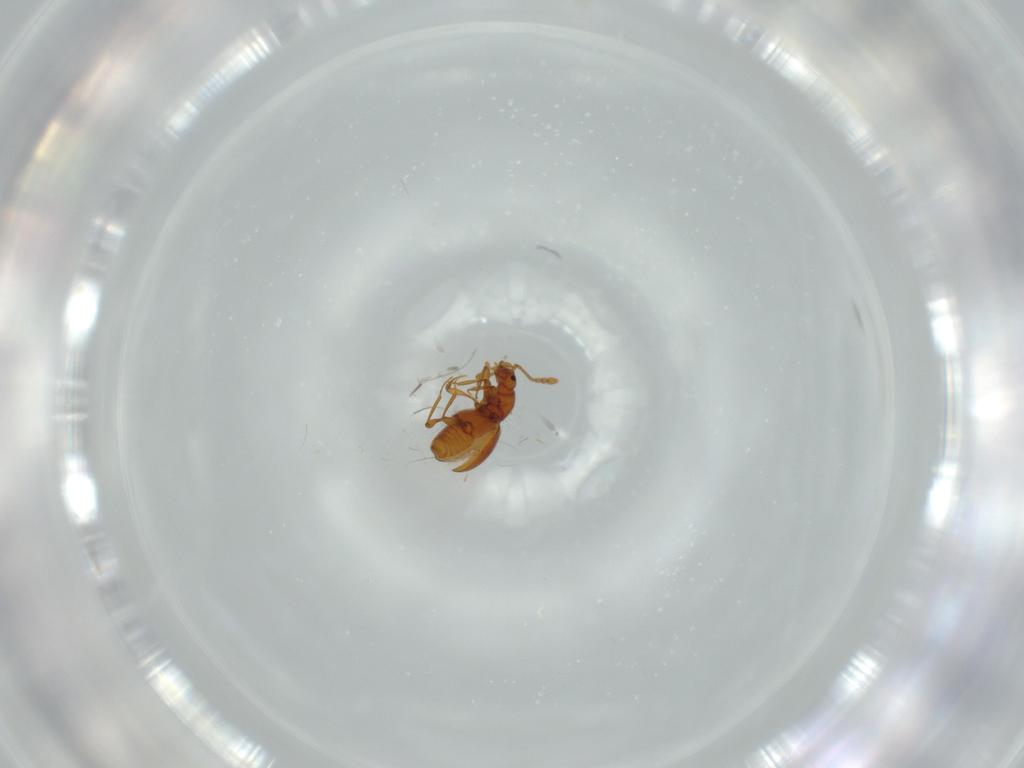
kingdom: Animalia
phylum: Arthropoda
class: Insecta
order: Coleoptera
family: Staphylinidae
